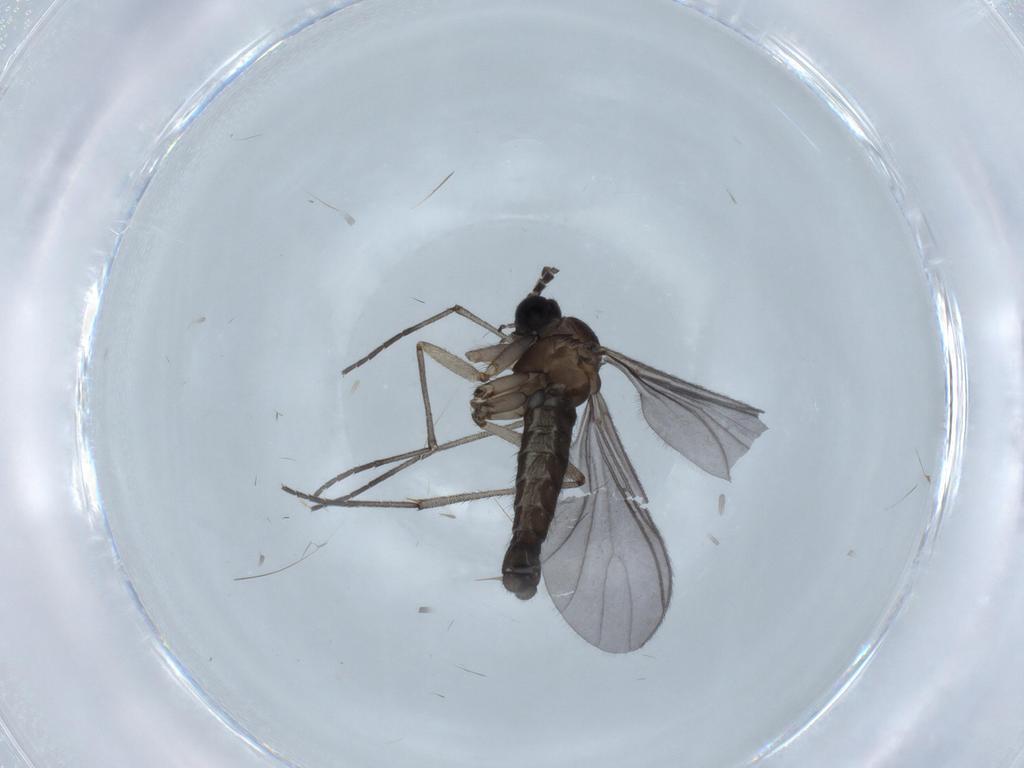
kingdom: Animalia
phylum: Arthropoda
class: Insecta
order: Diptera
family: Sciaridae
